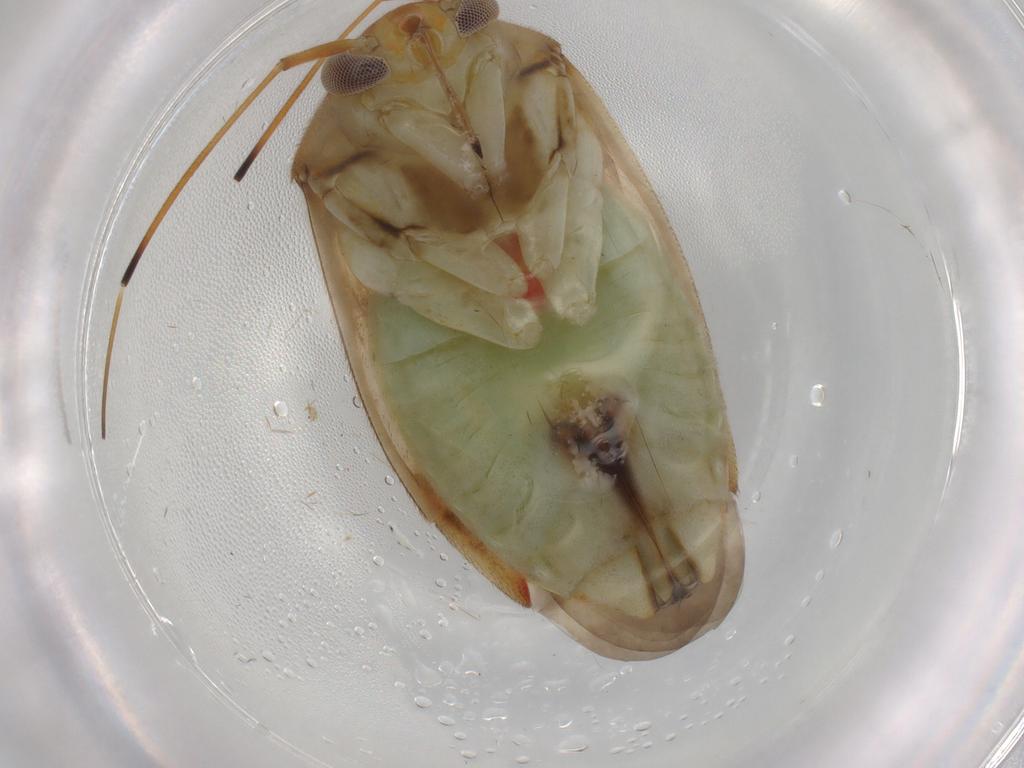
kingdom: Animalia
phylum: Arthropoda
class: Insecta
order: Hemiptera
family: Miridae
